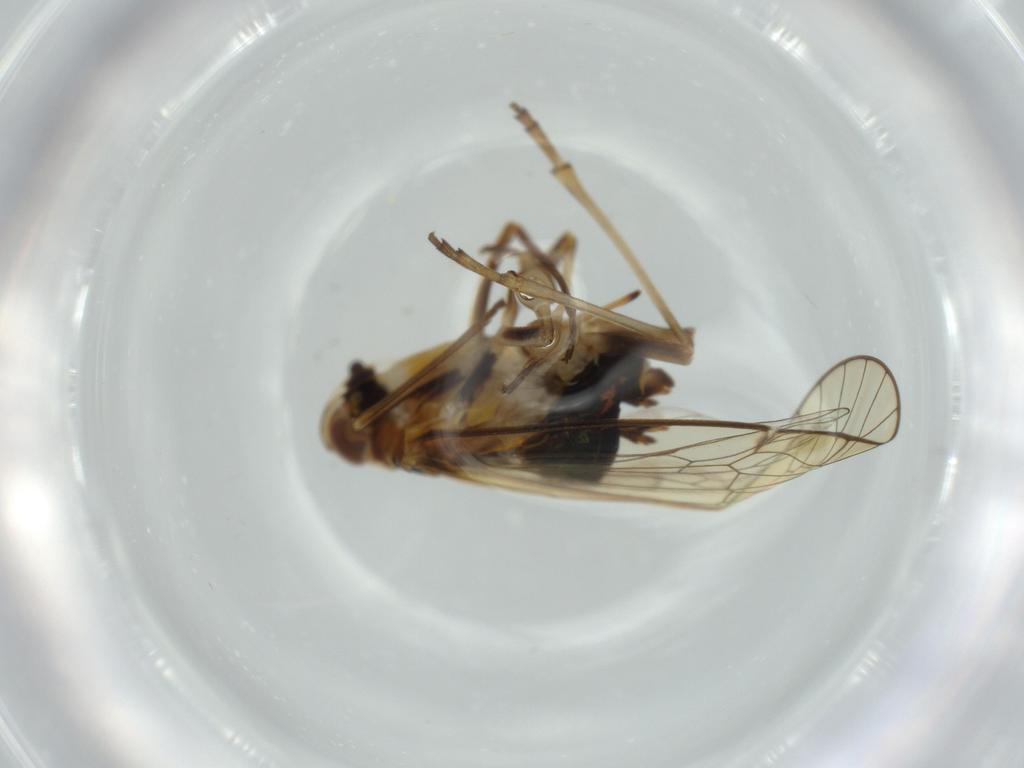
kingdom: Animalia
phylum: Arthropoda
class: Insecta
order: Hemiptera
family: Kinnaridae
